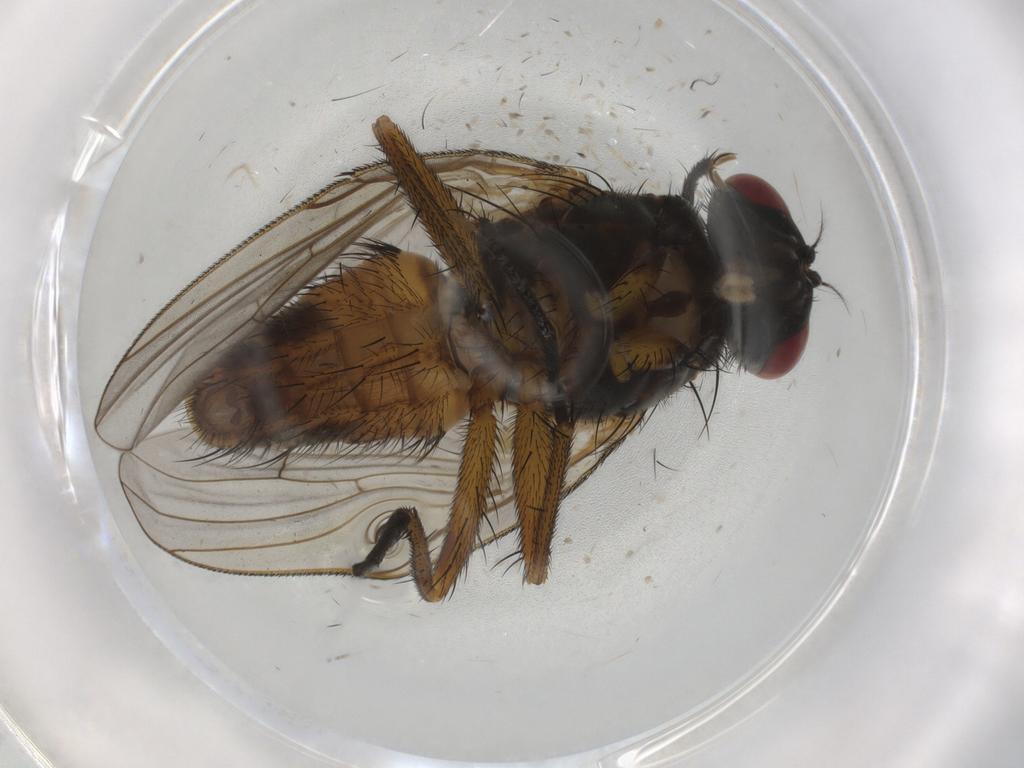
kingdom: Animalia
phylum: Arthropoda
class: Insecta
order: Diptera
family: Muscidae
